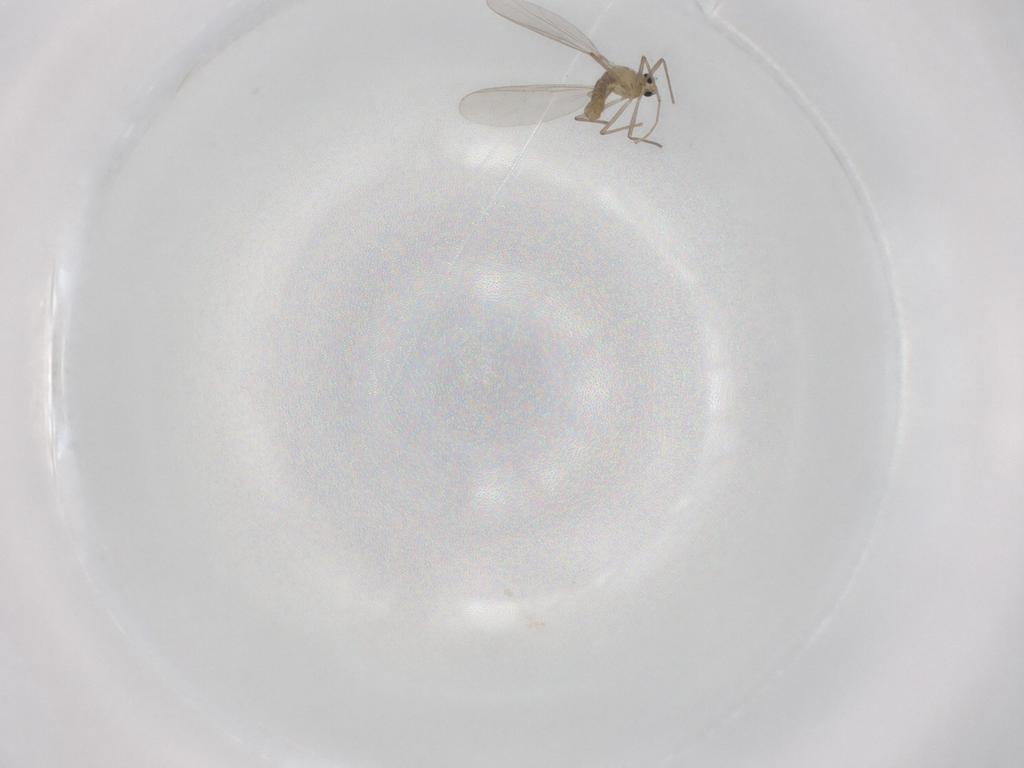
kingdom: Animalia
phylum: Arthropoda
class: Insecta
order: Diptera
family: Chironomidae
